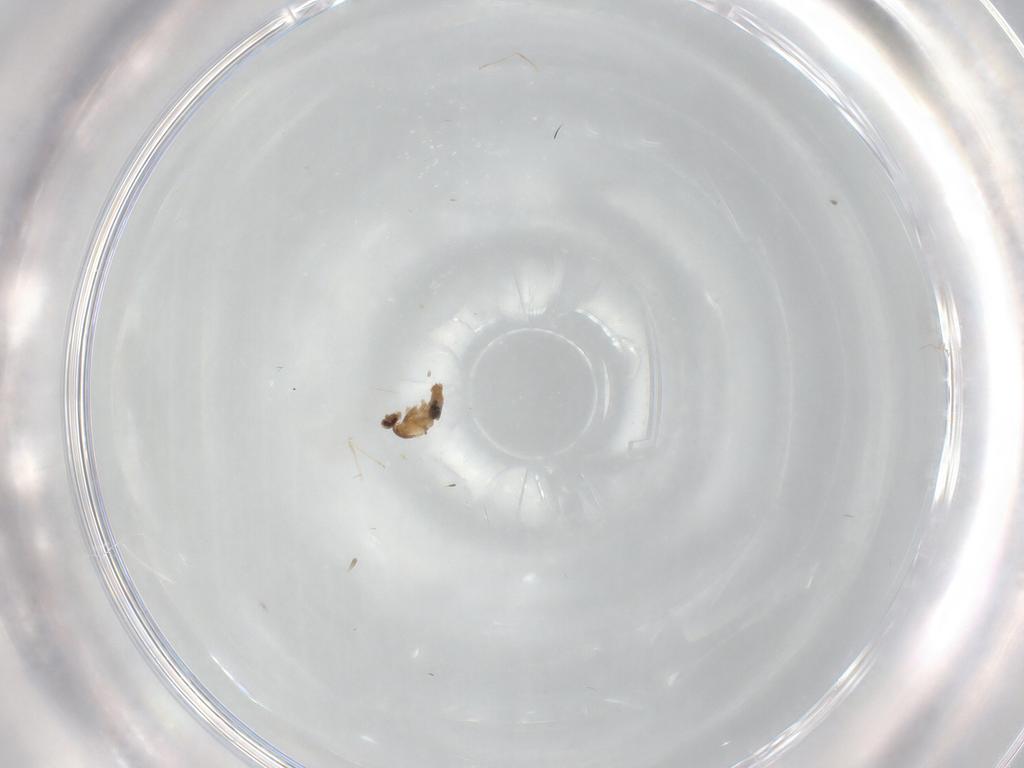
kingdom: Animalia
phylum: Arthropoda
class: Insecta
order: Diptera
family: Cecidomyiidae
